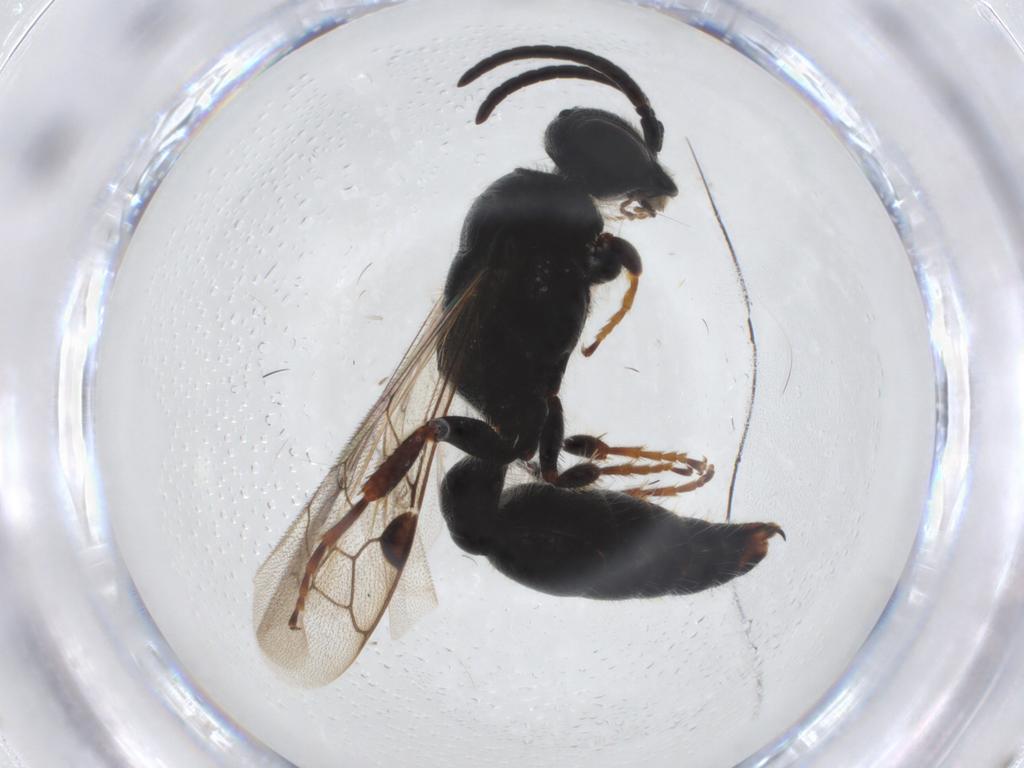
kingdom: Animalia
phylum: Arthropoda
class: Insecta
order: Hymenoptera
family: Tiphiidae
